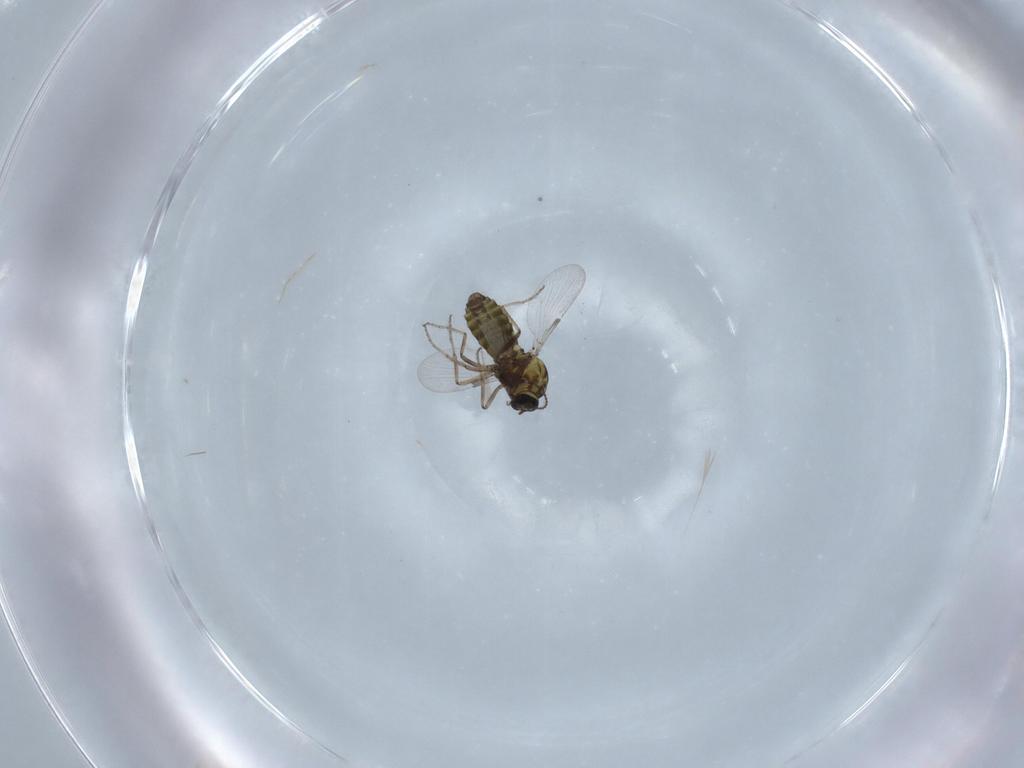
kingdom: Animalia
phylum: Arthropoda
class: Insecta
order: Diptera
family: Ceratopogonidae
